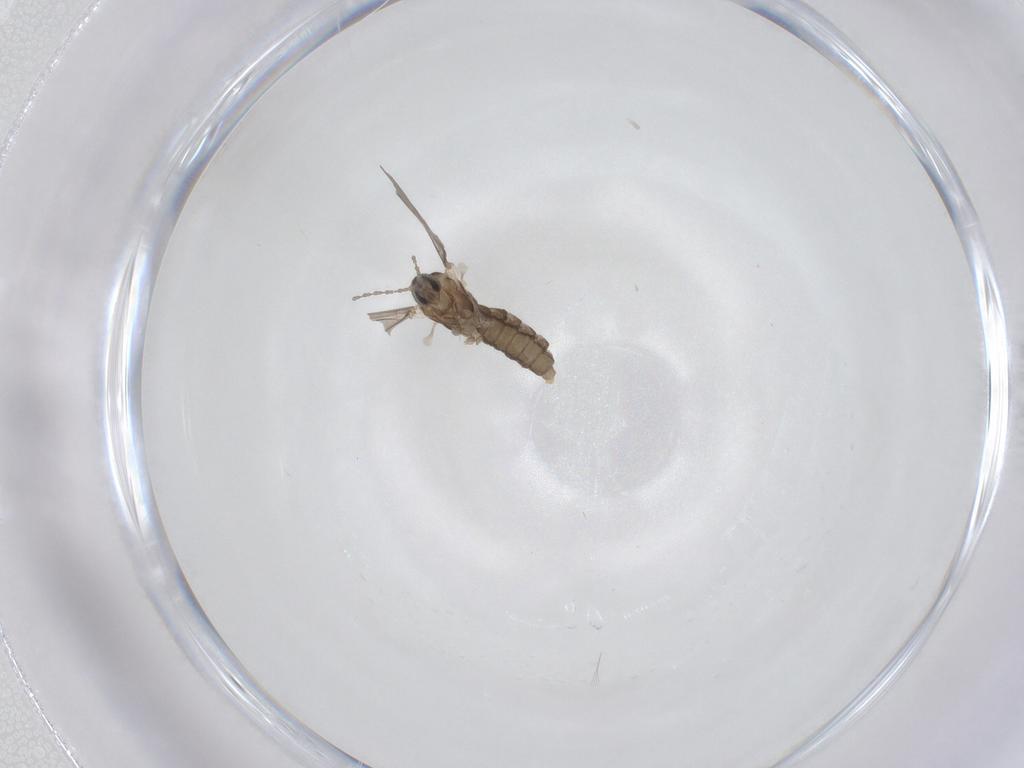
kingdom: Animalia
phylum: Arthropoda
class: Insecta
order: Diptera
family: Cecidomyiidae
